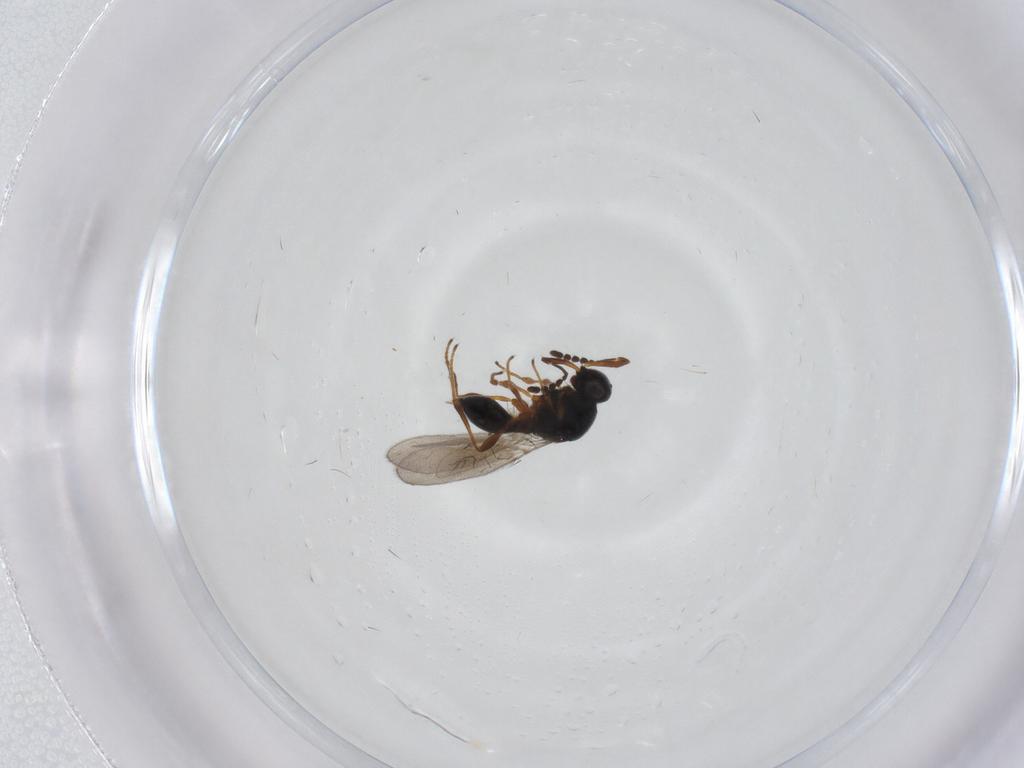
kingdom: Animalia
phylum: Arthropoda
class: Insecta
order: Hymenoptera
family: Platygastridae
